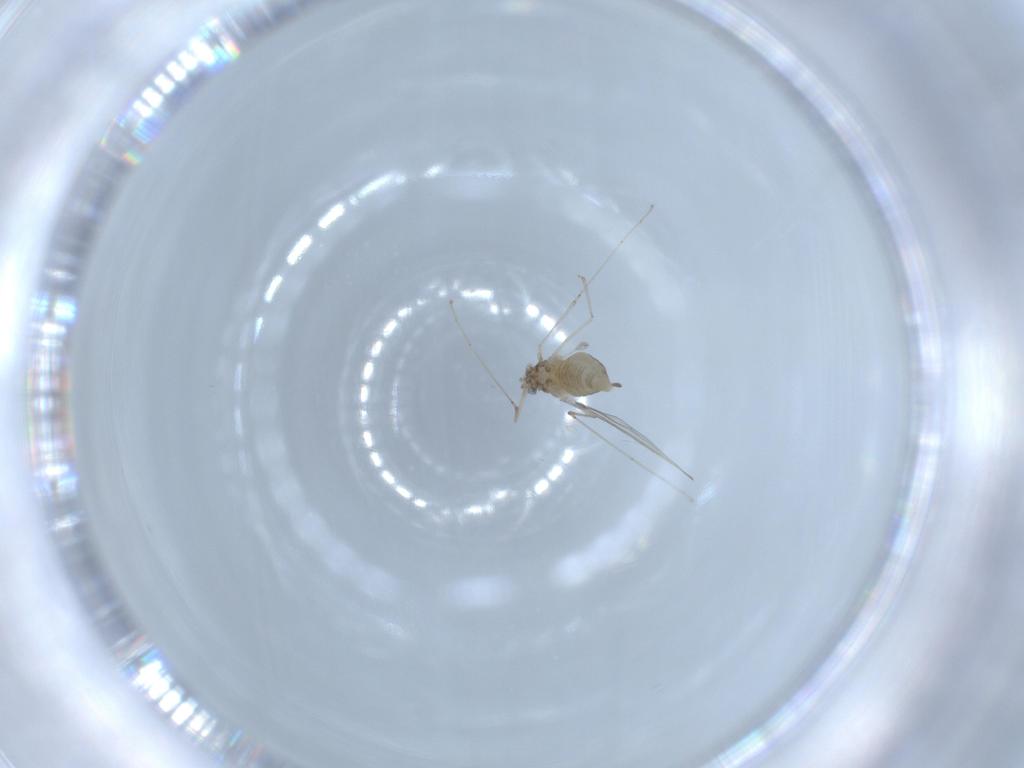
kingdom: Animalia
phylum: Arthropoda
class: Insecta
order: Diptera
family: Cecidomyiidae
